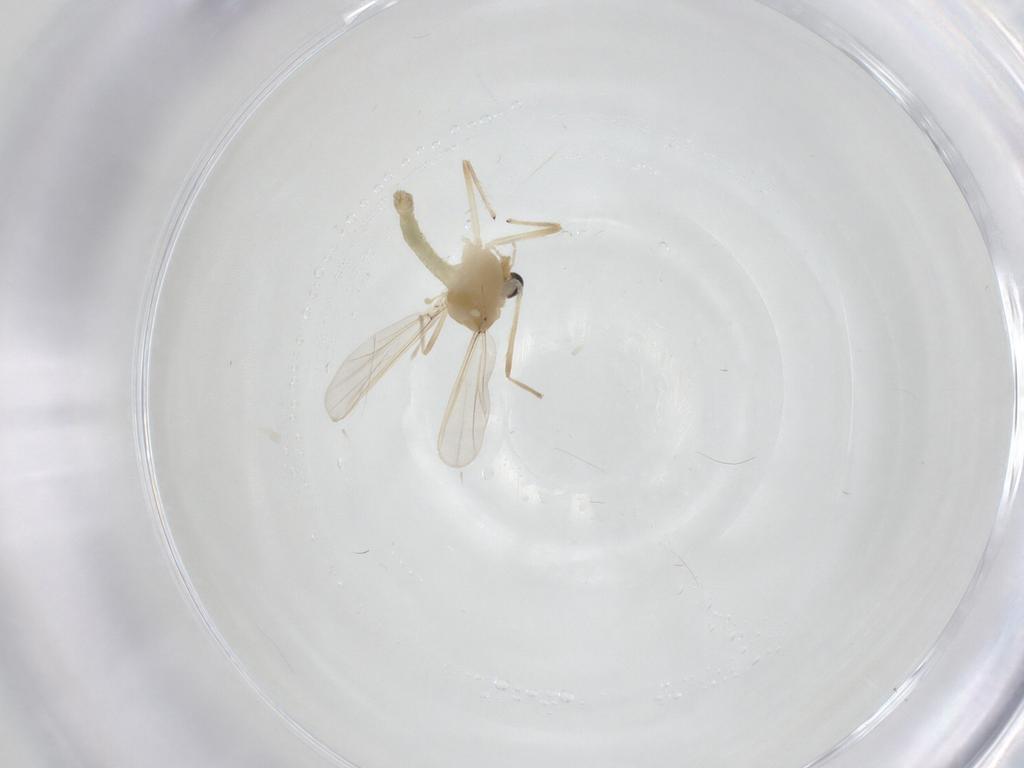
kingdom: Animalia
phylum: Arthropoda
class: Insecta
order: Diptera
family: Chironomidae
